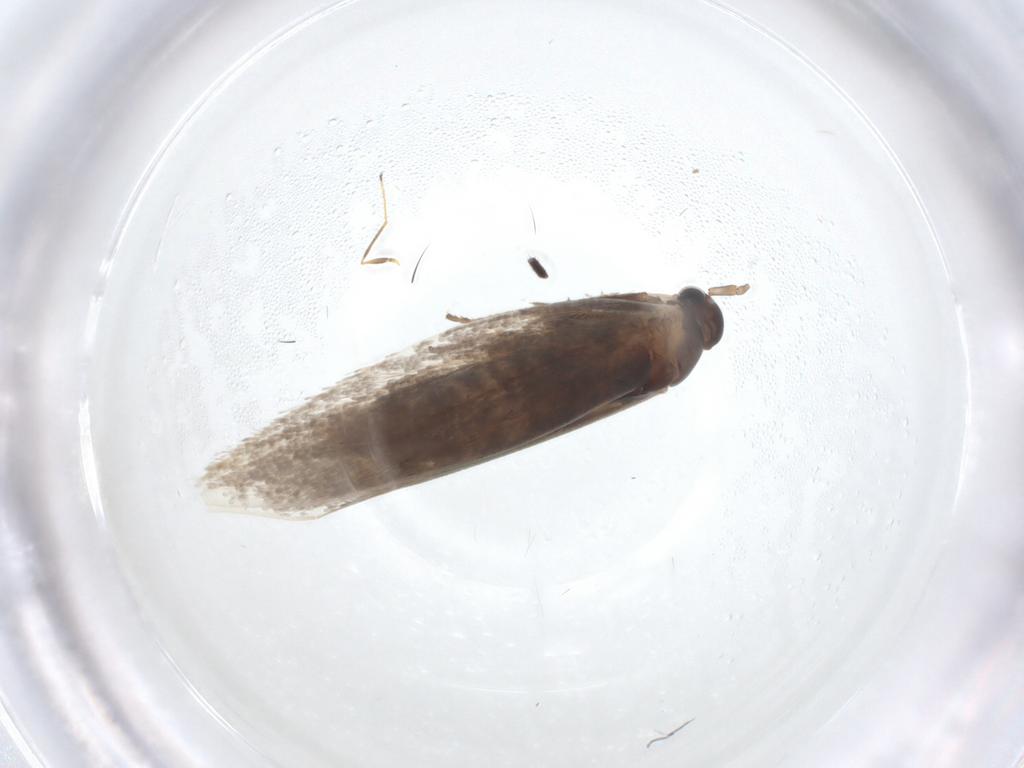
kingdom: Animalia
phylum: Arthropoda
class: Insecta
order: Lepidoptera
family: Elachistidae
